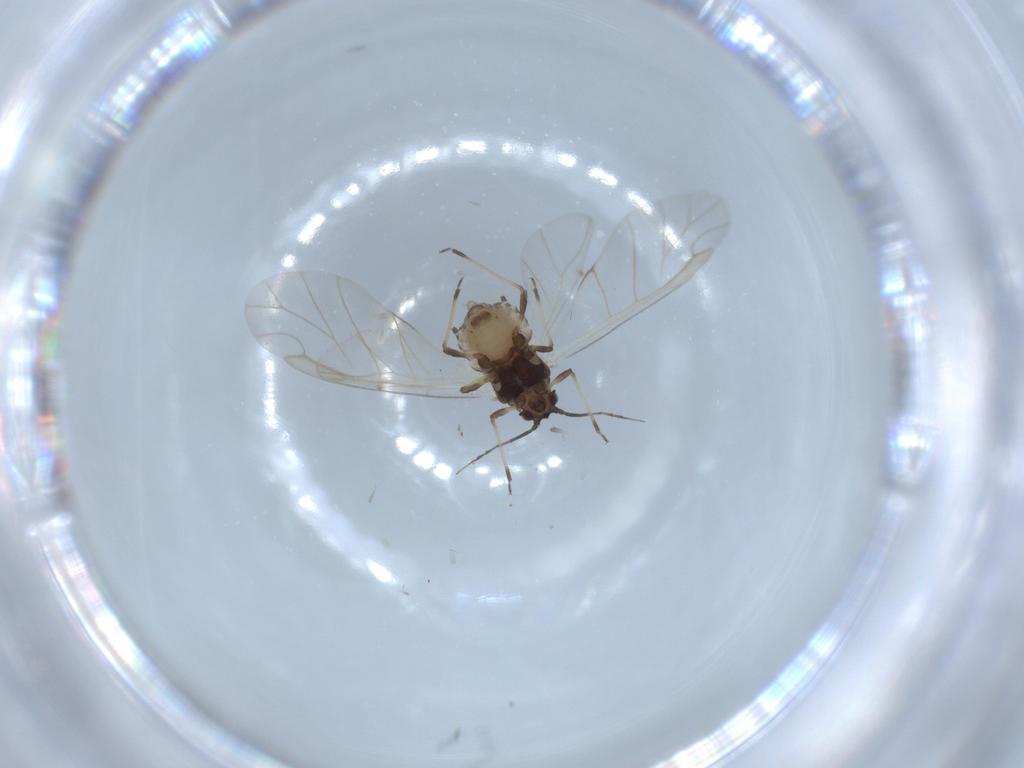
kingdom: Animalia
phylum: Arthropoda
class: Insecta
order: Hemiptera
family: Aphididae
